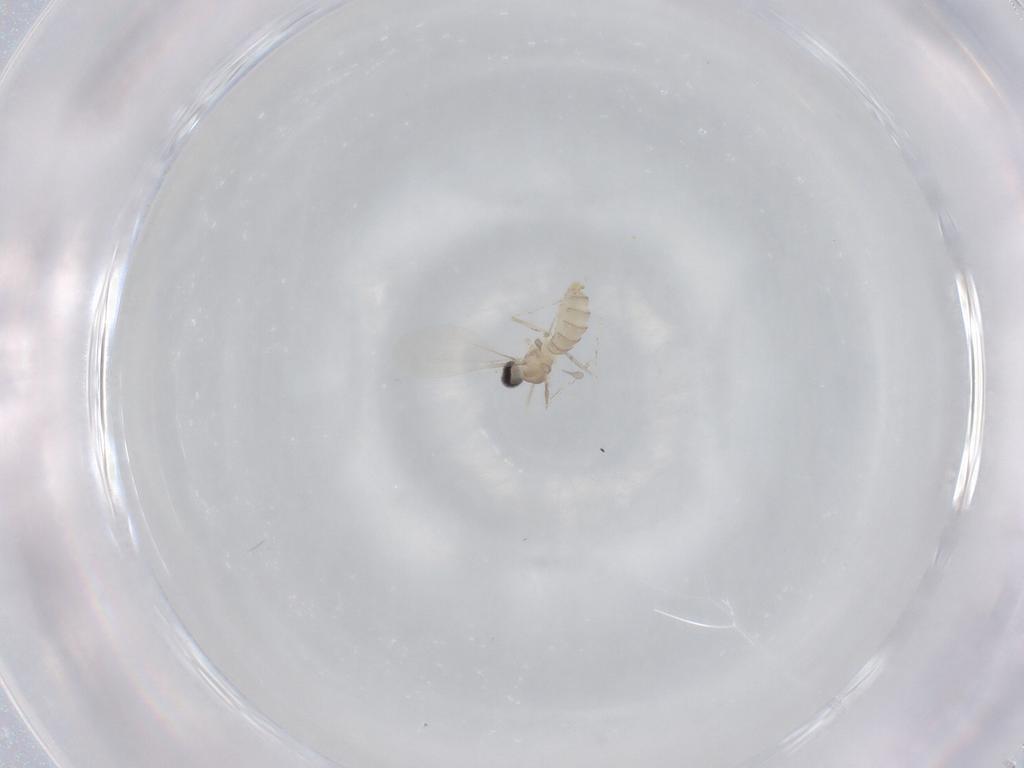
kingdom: Animalia
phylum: Arthropoda
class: Insecta
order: Diptera
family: Cecidomyiidae
